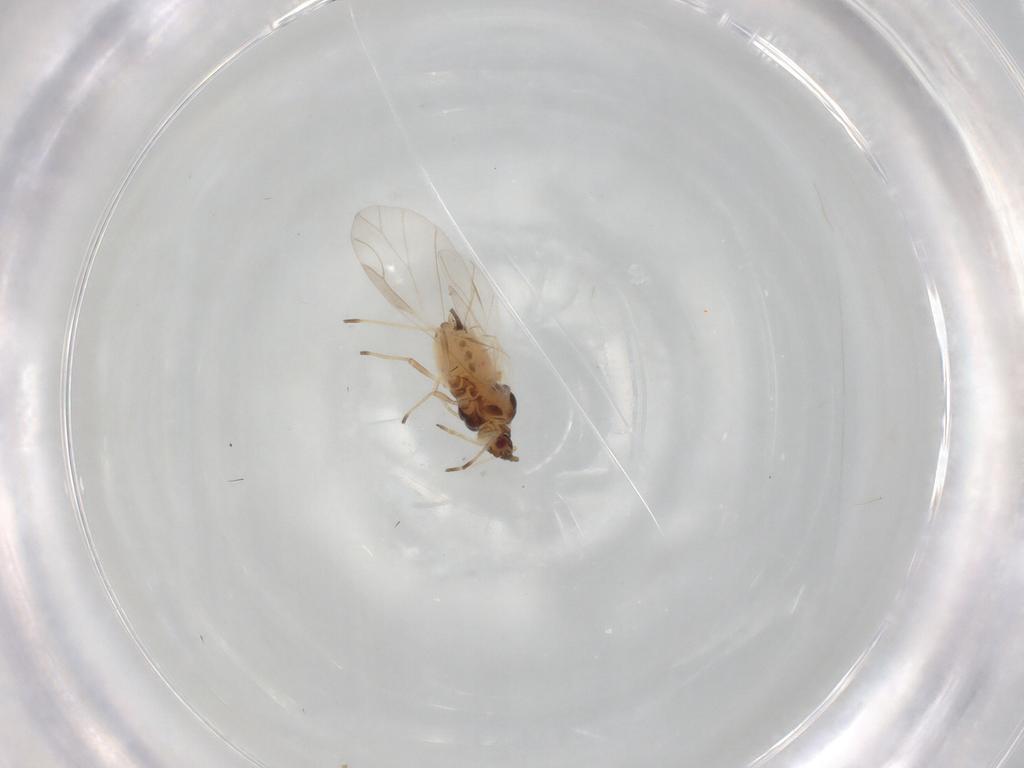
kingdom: Animalia
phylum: Arthropoda
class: Insecta
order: Hemiptera
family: Aphididae
